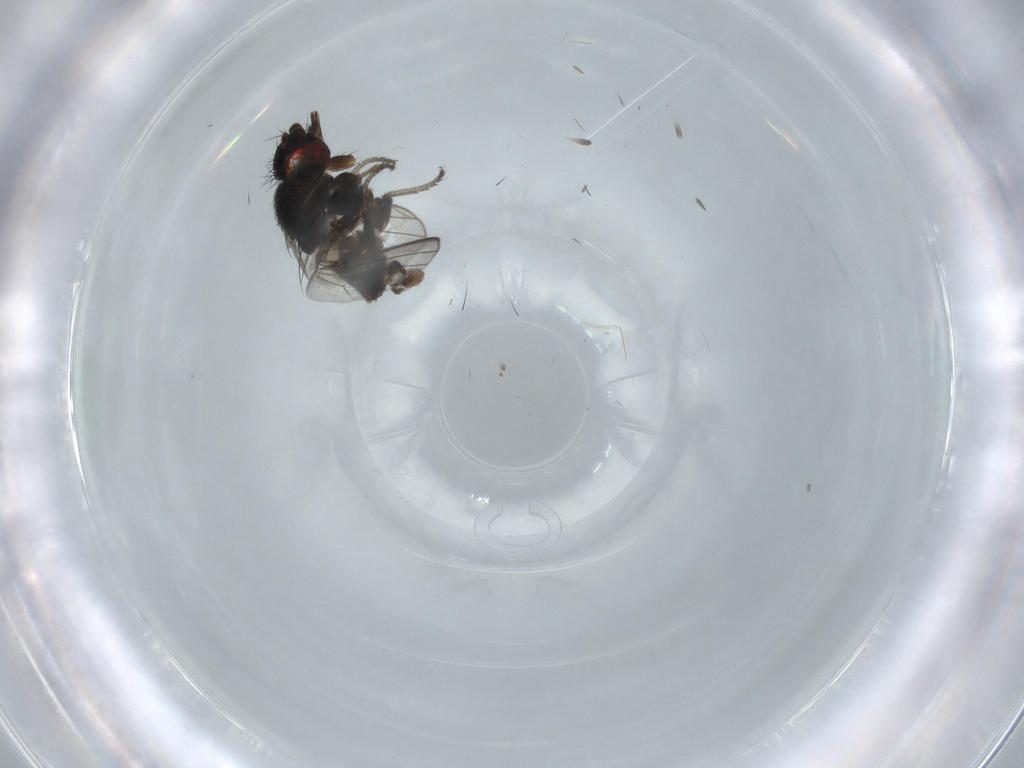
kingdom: Animalia
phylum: Arthropoda
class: Insecta
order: Diptera
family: Milichiidae
